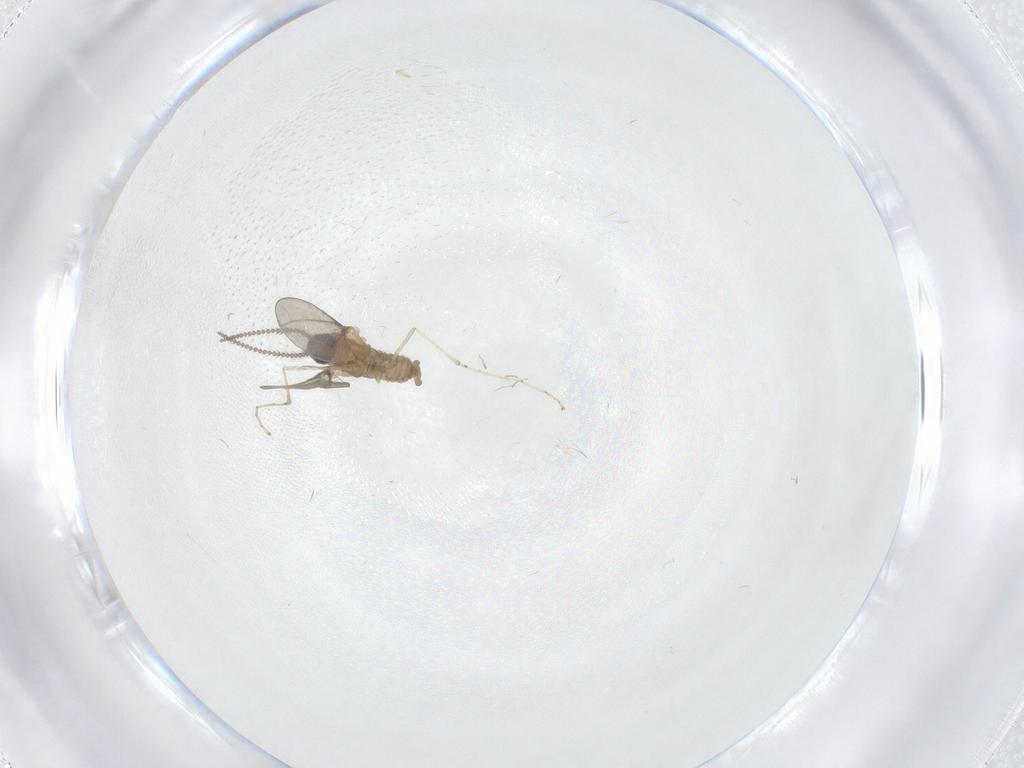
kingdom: Animalia
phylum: Arthropoda
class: Insecta
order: Diptera
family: Cecidomyiidae
